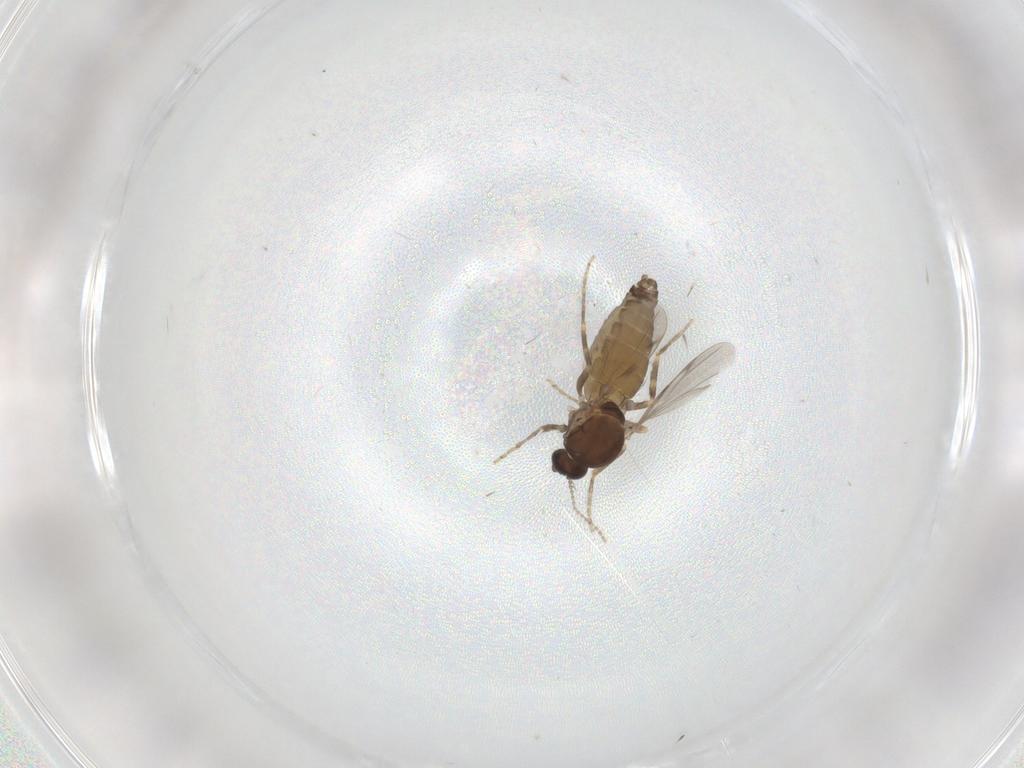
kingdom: Animalia
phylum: Arthropoda
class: Insecta
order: Diptera
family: Ceratopogonidae
